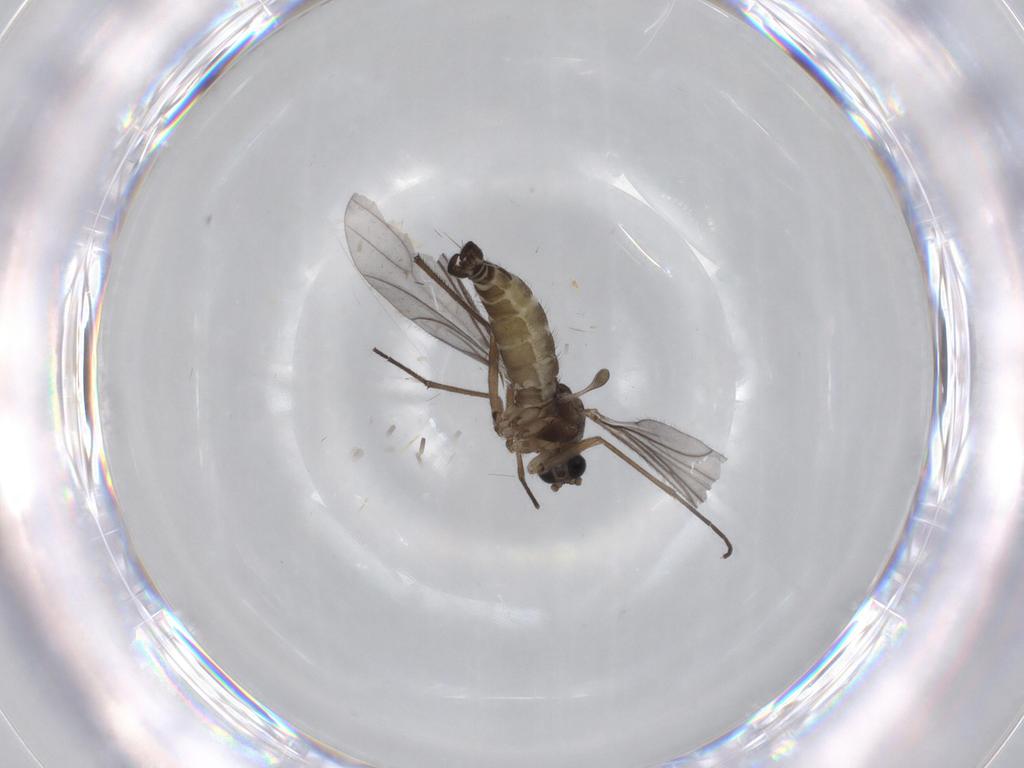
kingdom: Animalia
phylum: Arthropoda
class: Insecta
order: Diptera
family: Drosophilidae
